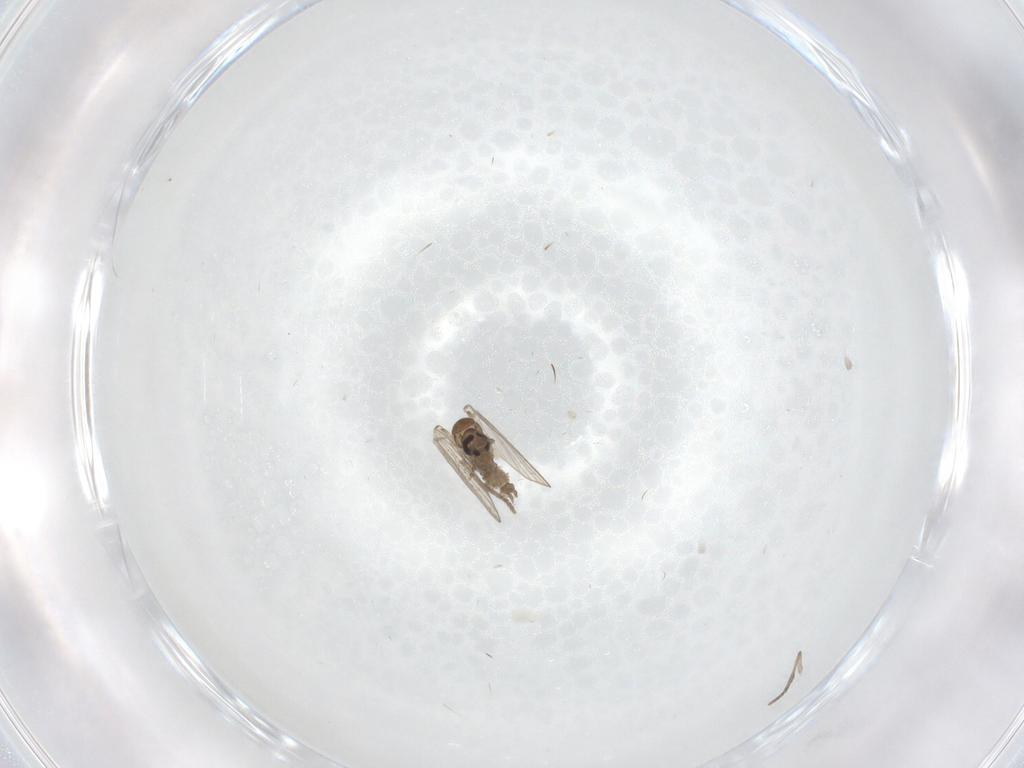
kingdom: Animalia
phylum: Arthropoda
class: Insecta
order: Diptera
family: Psychodidae
